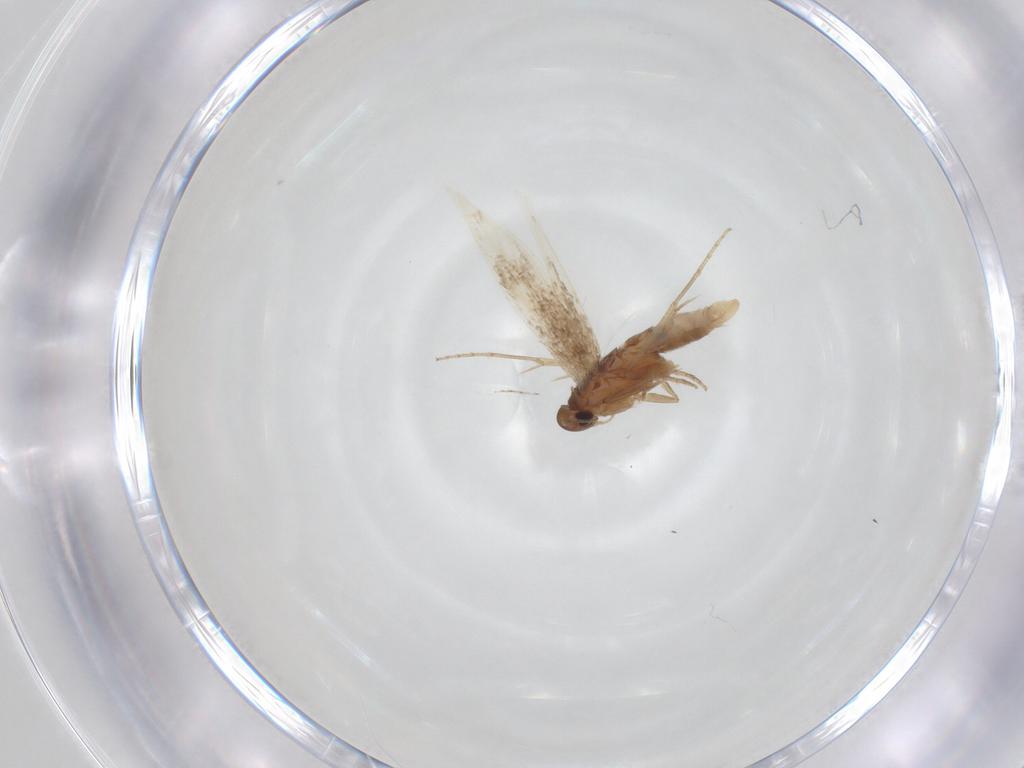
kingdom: Animalia
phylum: Arthropoda
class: Insecta
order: Lepidoptera
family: Gelechiidae
